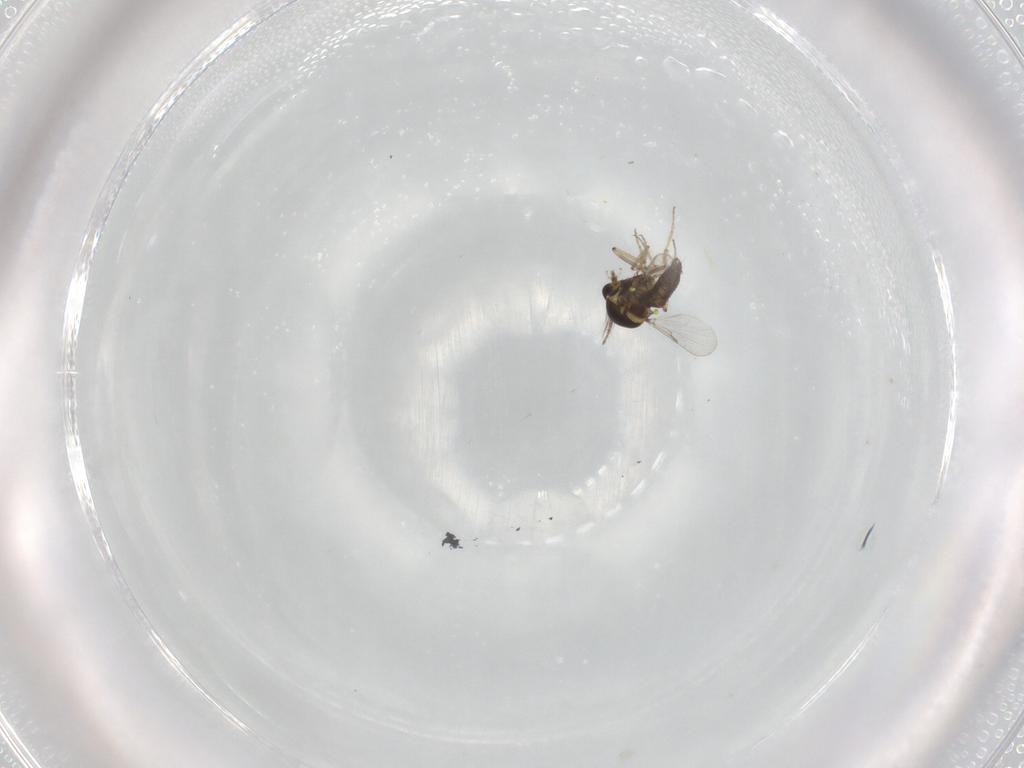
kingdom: Animalia
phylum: Arthropoda
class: Insecta
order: Diptera
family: Ceratopogonidae
